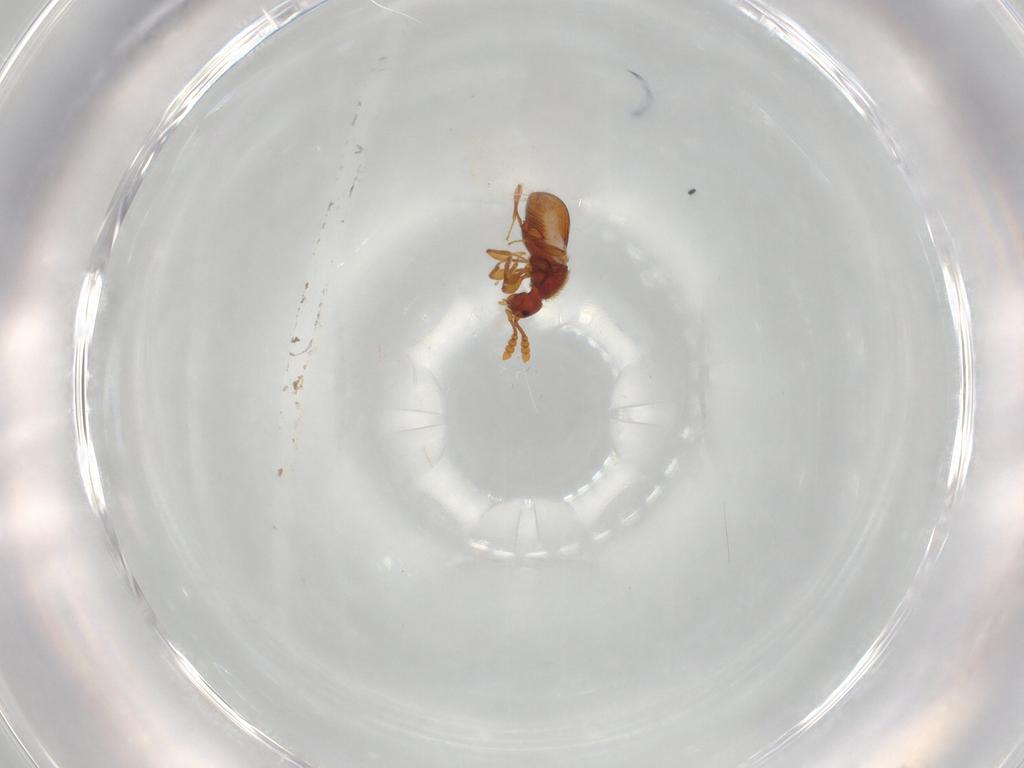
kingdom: Animalia
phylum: Arthropoda
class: Insecta
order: Coleoptera
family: Staphylinidae
